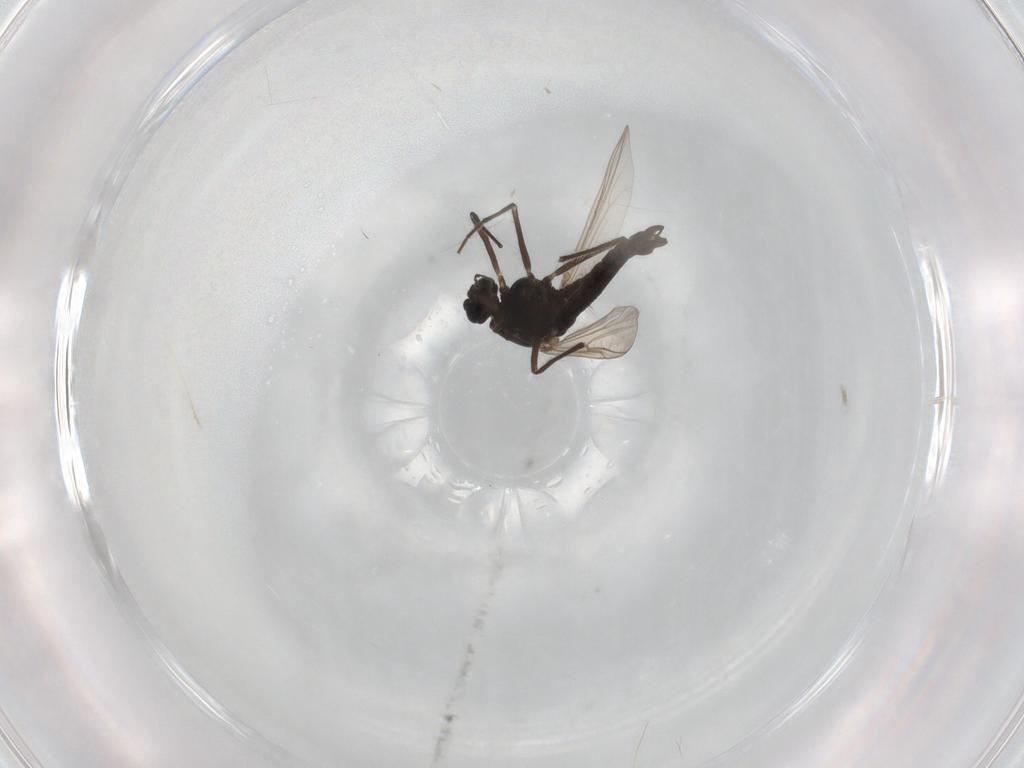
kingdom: Animalia
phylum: Arthropoda
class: Insecta
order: Diptera
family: Chironomidae
